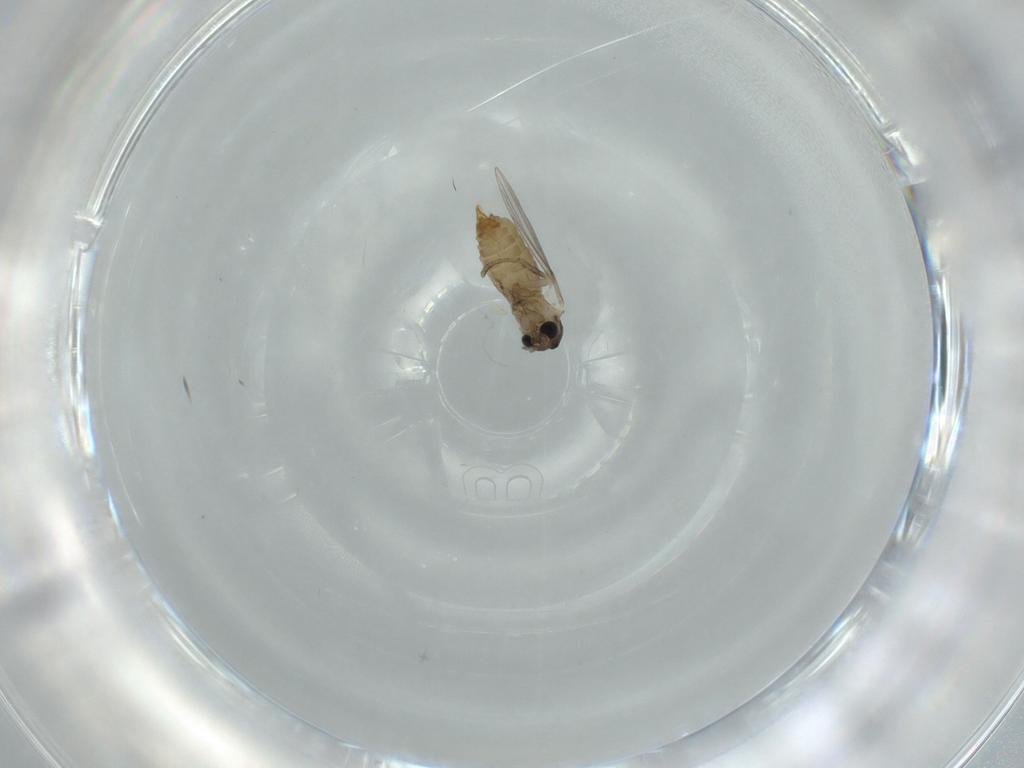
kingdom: Animalia
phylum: Arthropoda
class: Insecta
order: Diptera
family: Psychodidae
